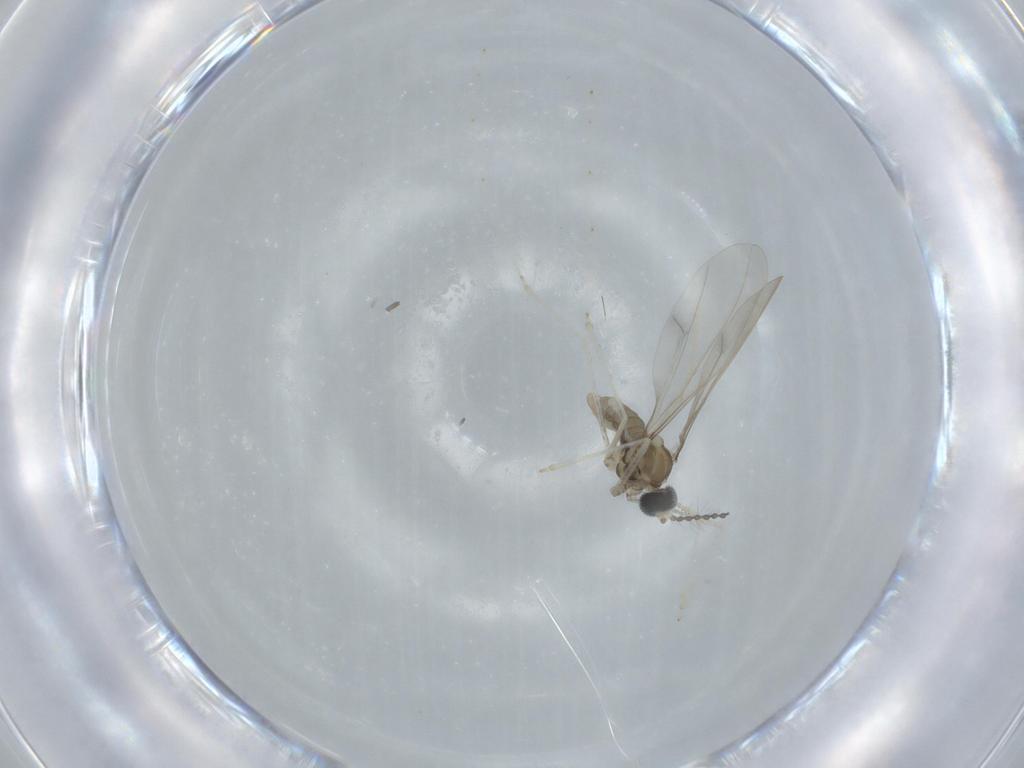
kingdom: Animalia
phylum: Arthropoda
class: Insecta
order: Diptera
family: Cecidomyiidae
